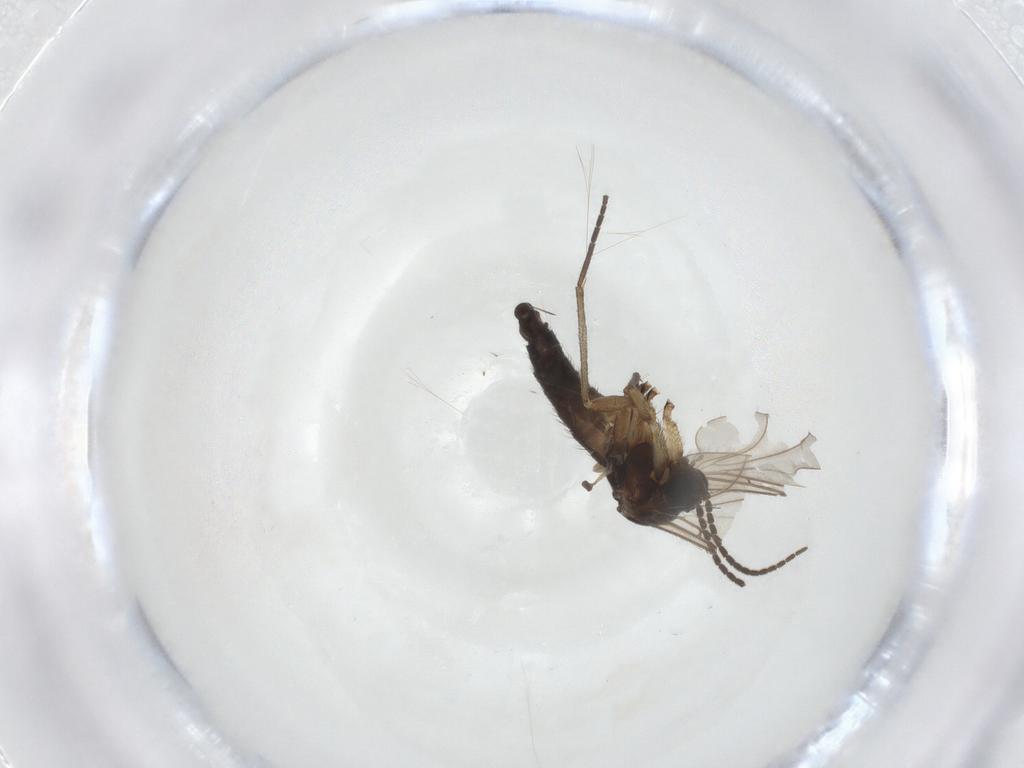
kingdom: Animalia
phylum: Arthropoda
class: Insecta
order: Diptera
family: Sciaridae
